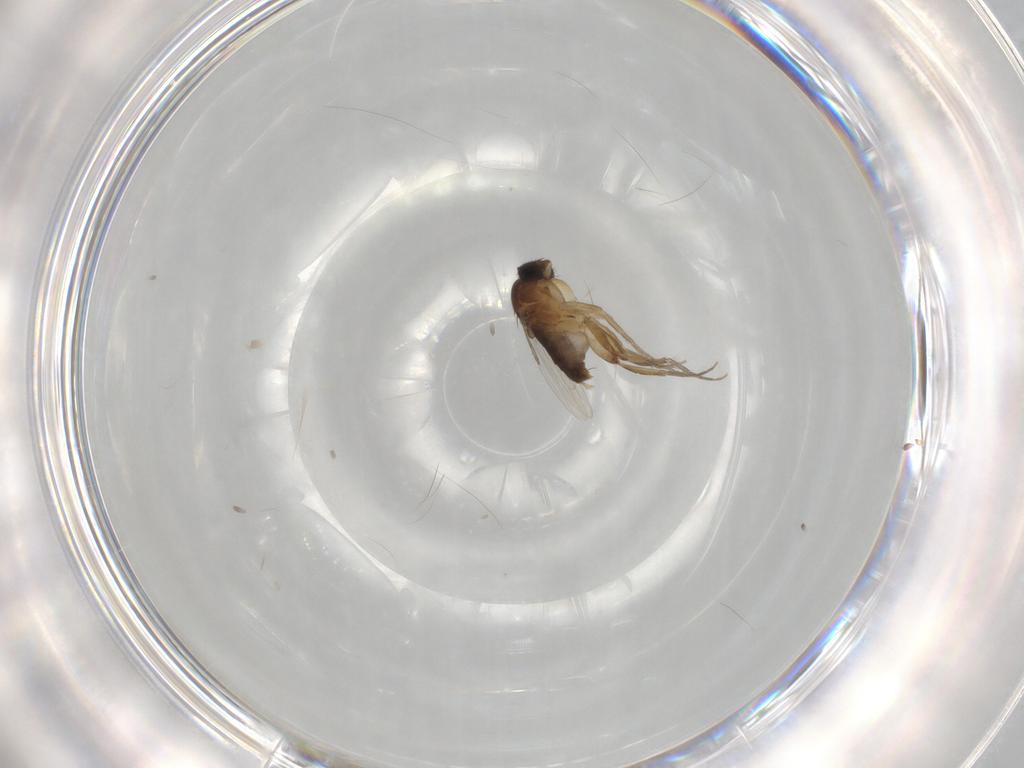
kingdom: Animalia
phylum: Arthropoda
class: Insecta
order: Diptera
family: Phoridae
